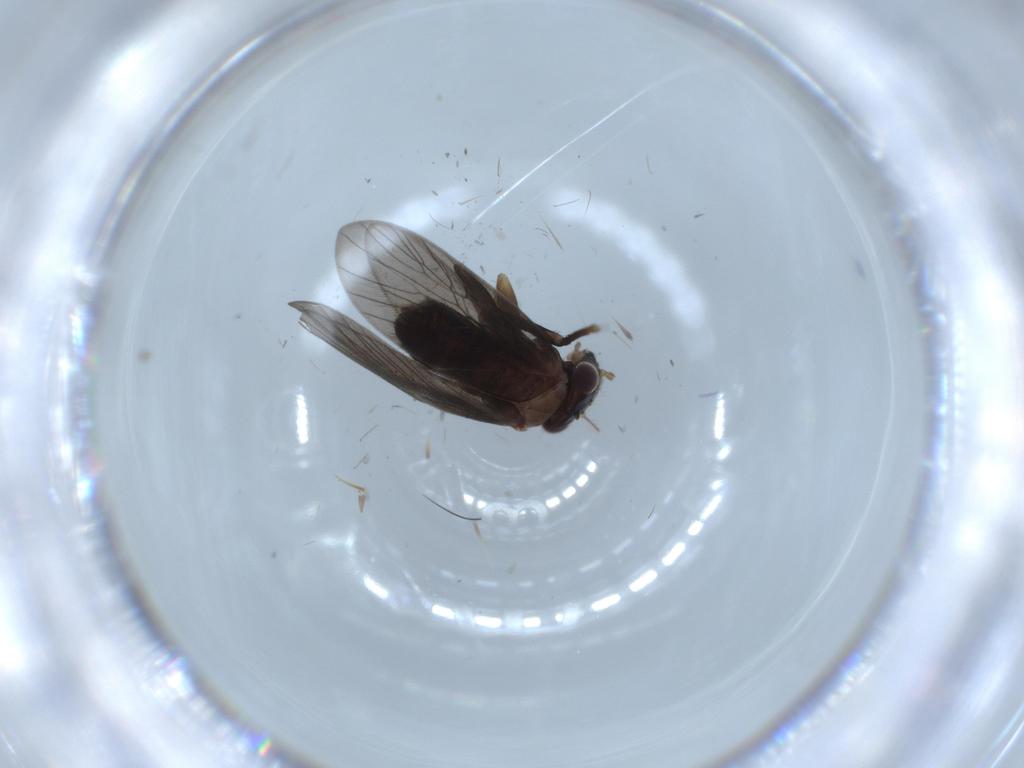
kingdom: Animalia
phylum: Arthropoda
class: Insecta
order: Psocodea
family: Lepidopsocidae
